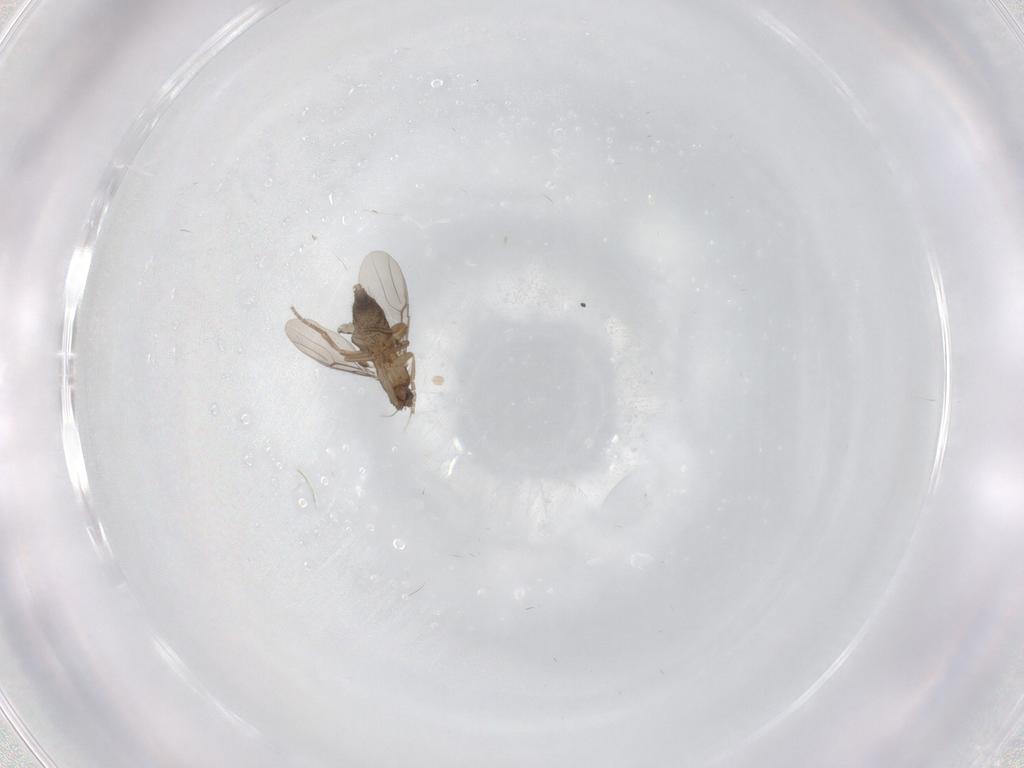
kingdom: Animalia
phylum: Arthropoda
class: Insecta
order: Diptera
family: Phoridae
